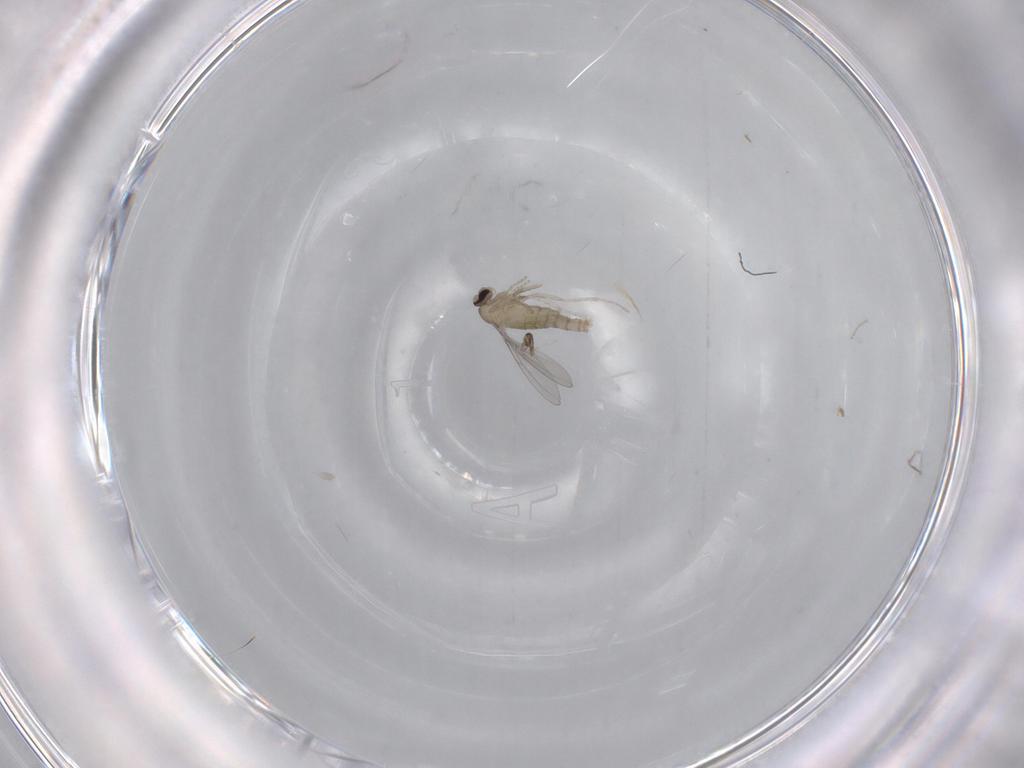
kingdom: Animalia
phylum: Arthropoda
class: Insecta
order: Diptera
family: Cecidomyiidae
